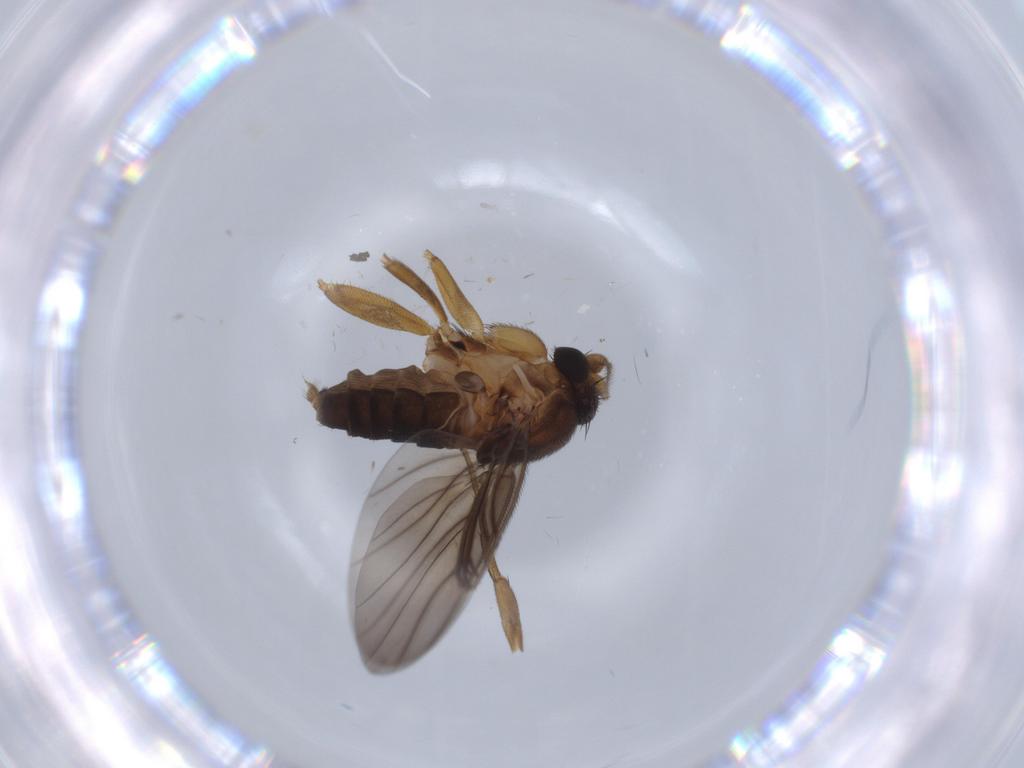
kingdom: Animalia
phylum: Arthropoda
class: Insecta
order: Diptera
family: Phoridae
